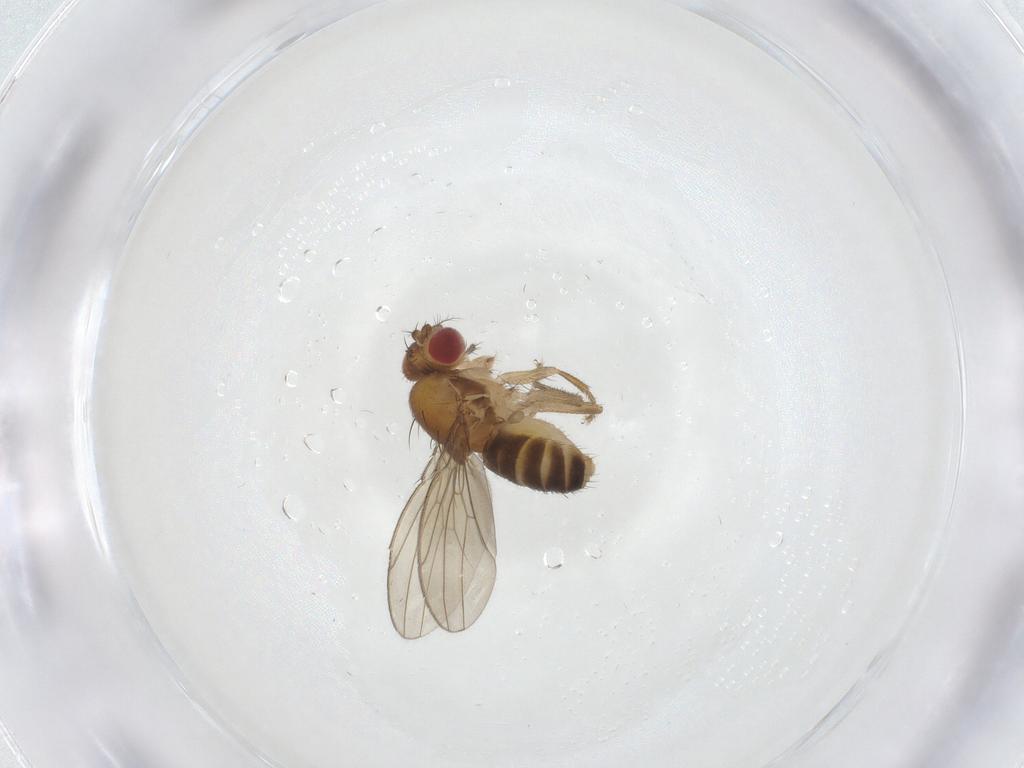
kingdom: Animalia
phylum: Arthropoda
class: Insecta
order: Diptera
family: Drosophilidae
